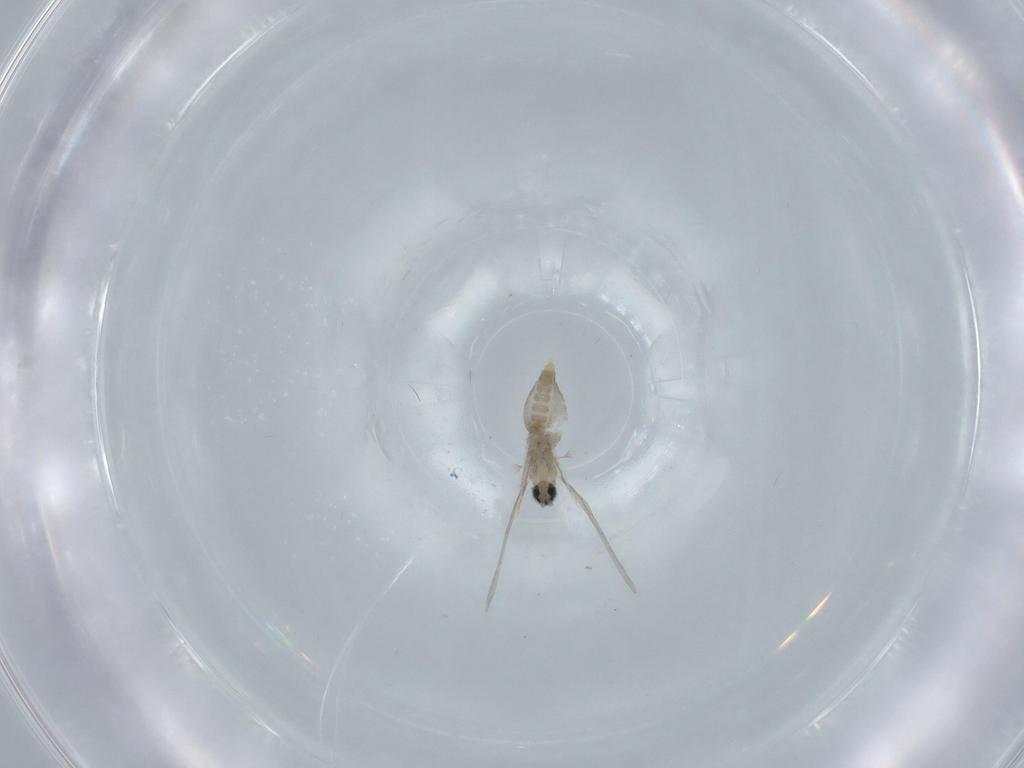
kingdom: Animalia
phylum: Arthropoda
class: Insecta
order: Diptera
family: Cecidomyiidae
